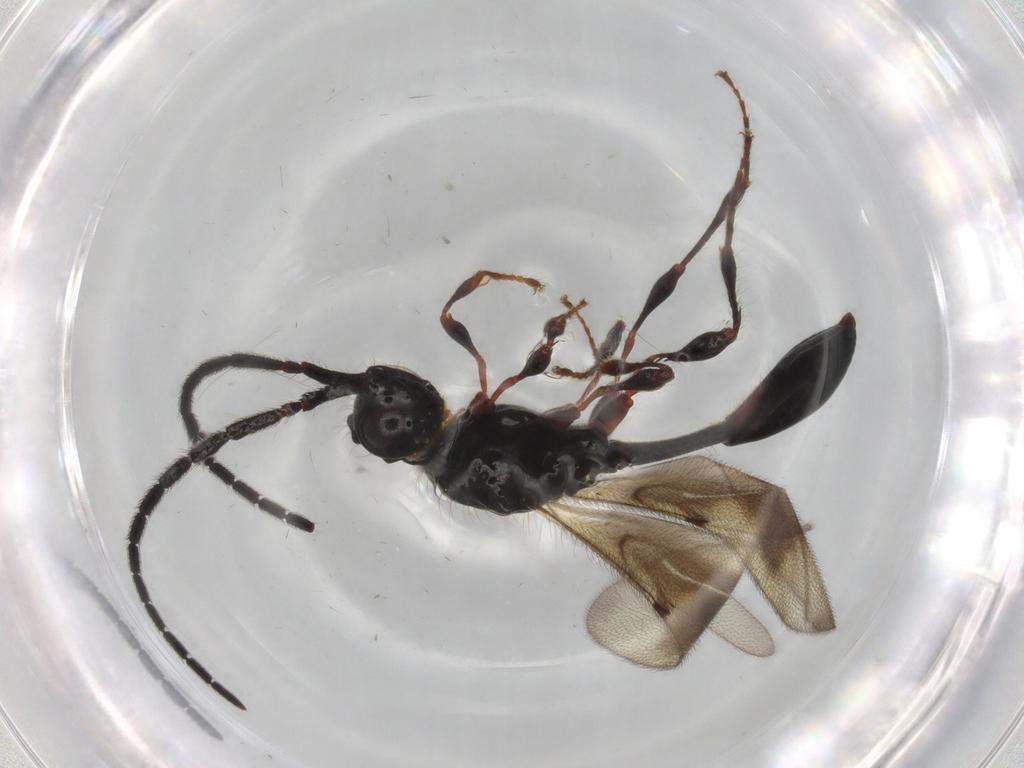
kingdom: Animalia
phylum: Arthropoda
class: Insecta
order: Hymenoptera
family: Diapriidae
